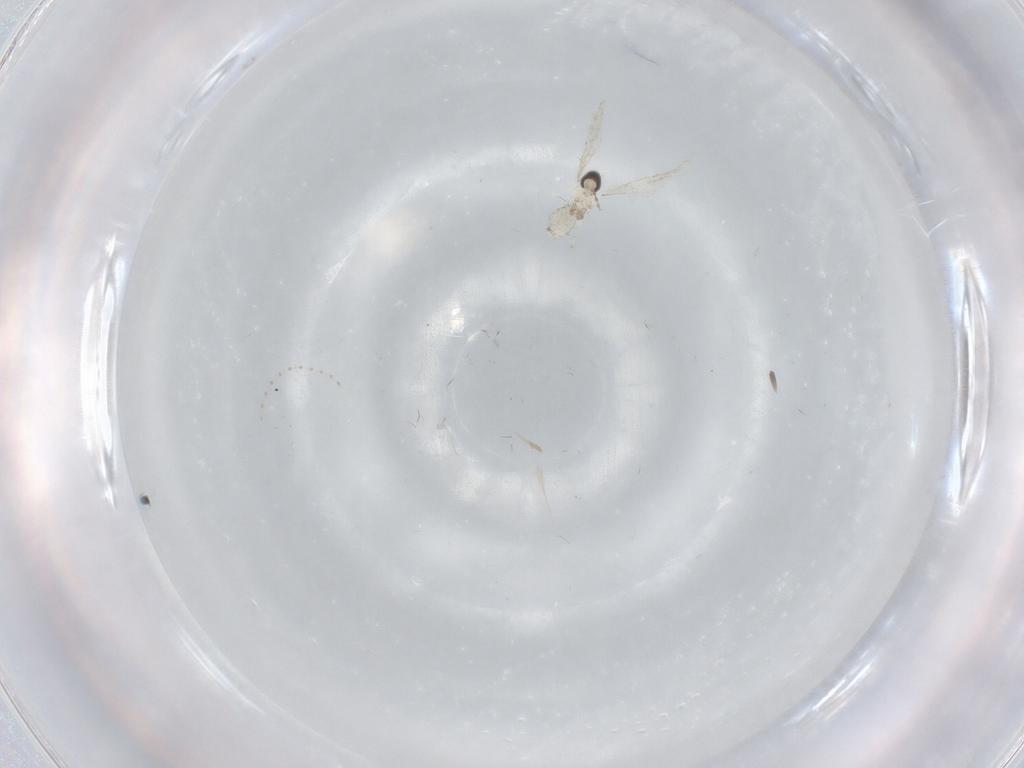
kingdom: Animalia
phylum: Arthropoda
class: Insecta
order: Diptera
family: Cecidomyiidae
